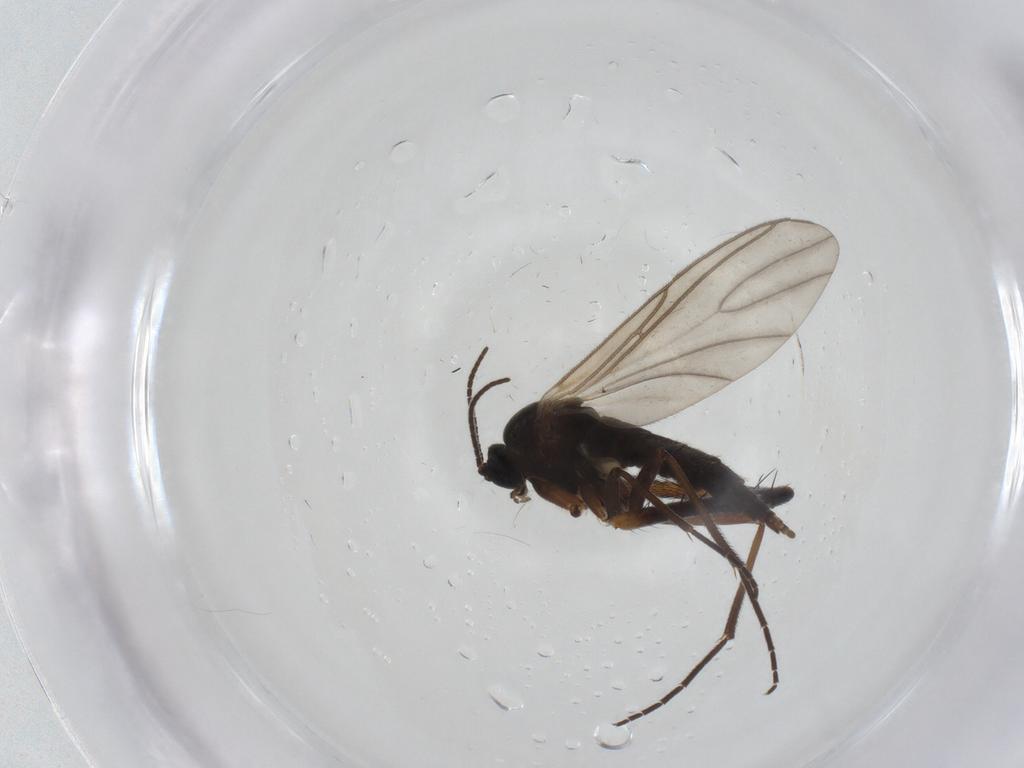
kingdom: Animalia
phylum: Arthropoda
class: Insecta
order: Diptera
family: Sciaridae
